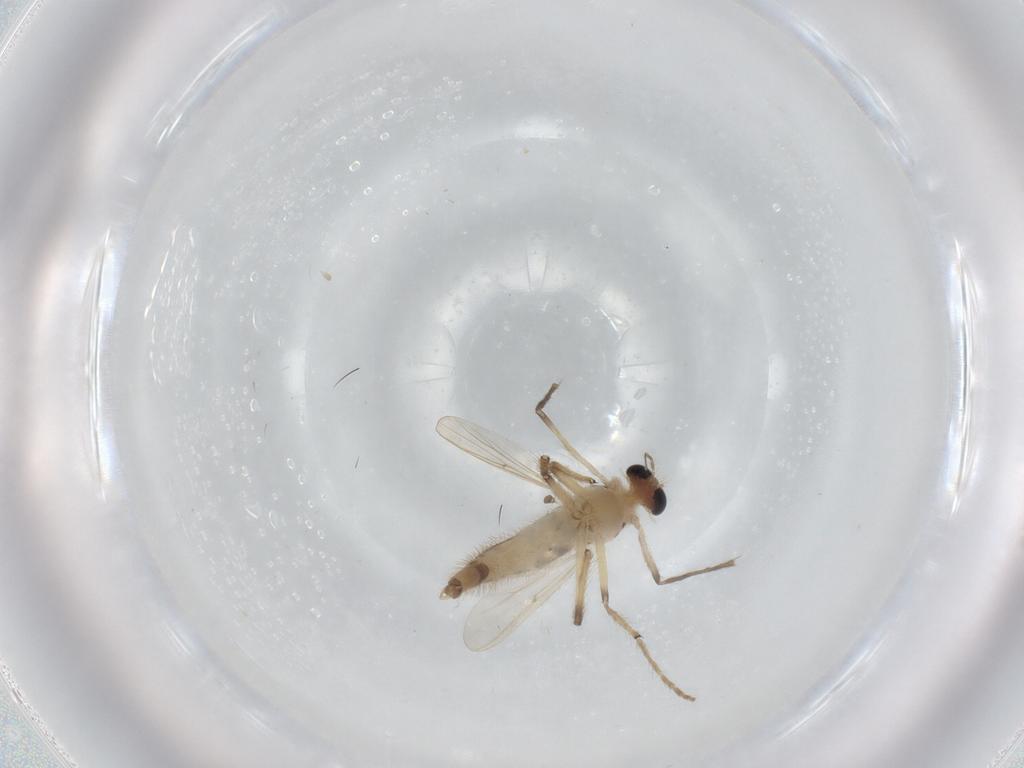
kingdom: Animalia
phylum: Arthropoda
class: Insecta
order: Diptera
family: Chironomidae
